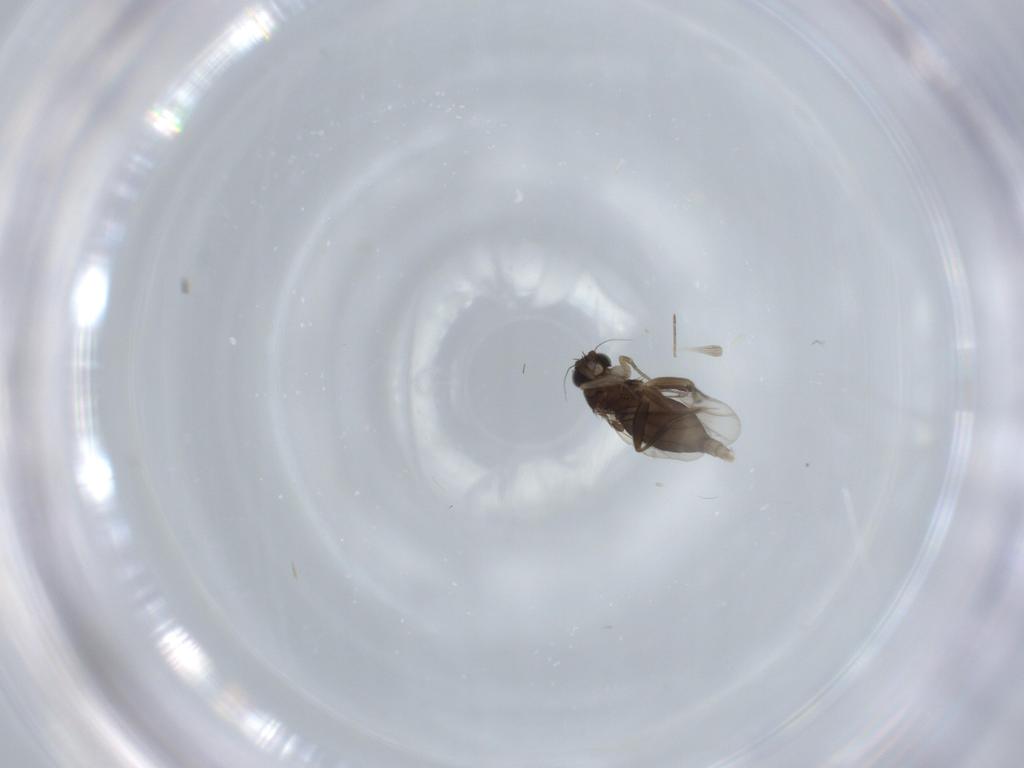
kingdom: Animalia
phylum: Arthropoda
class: Insecta
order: Diptera
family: Phoridae
